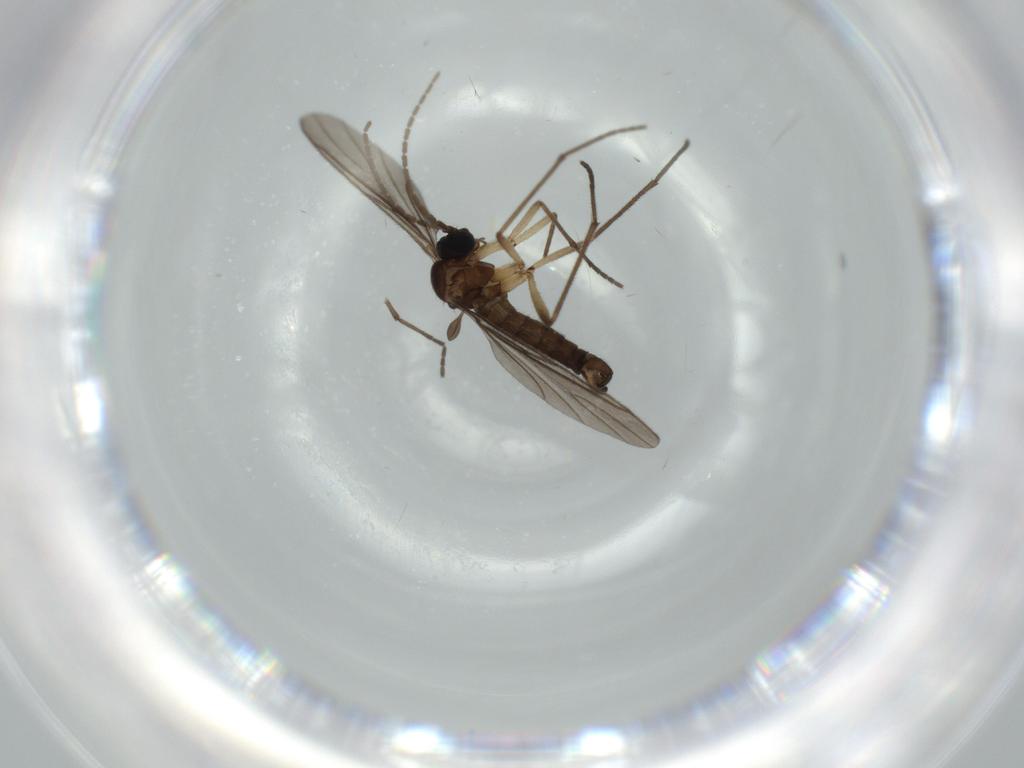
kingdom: Animalia
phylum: Arthropoda
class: Insecta
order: Diptera
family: Sciaridae
